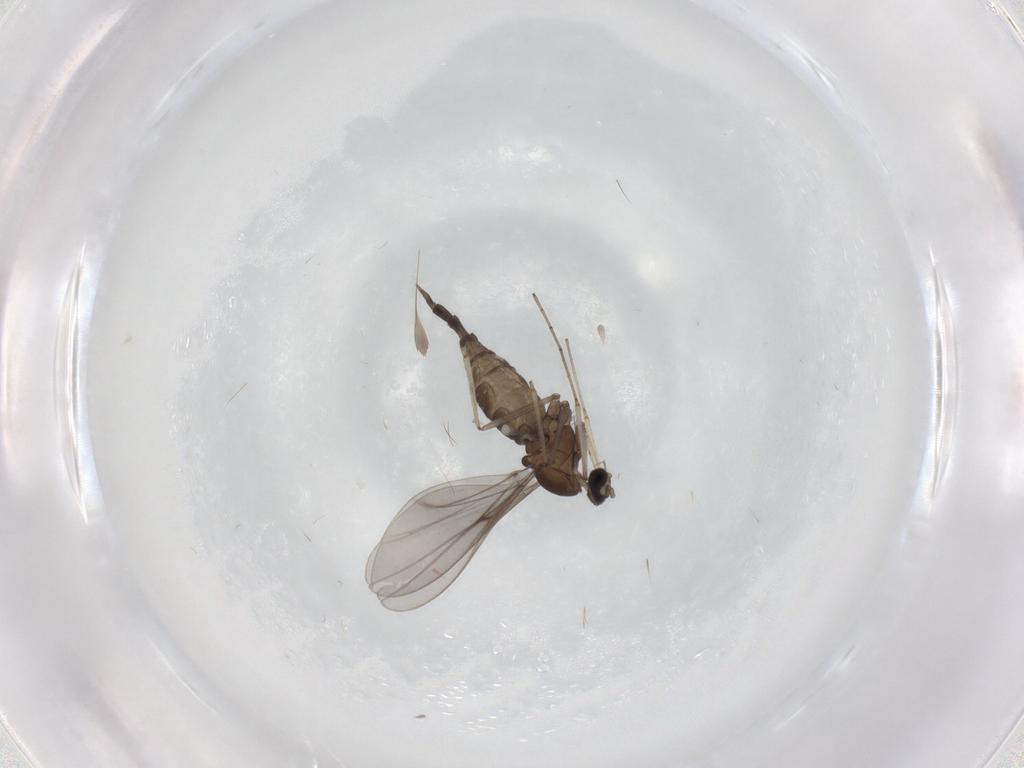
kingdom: Animalia
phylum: Arthropoda
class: Insecta
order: Diptera
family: Cecidomyiidae
